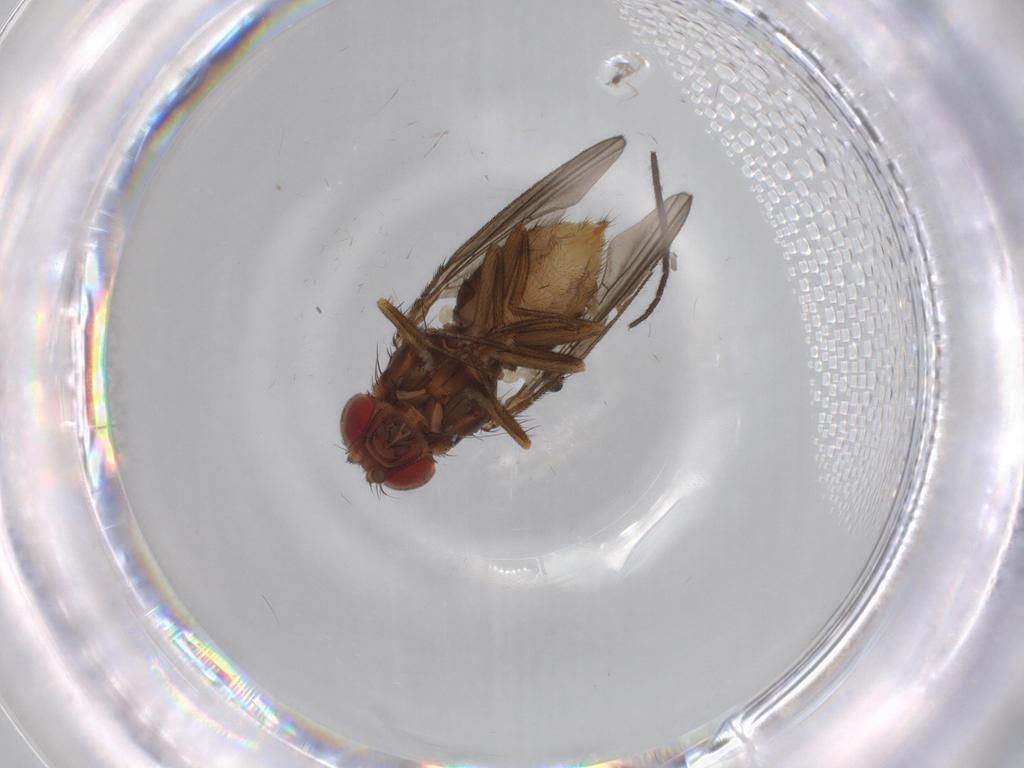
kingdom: Animalia
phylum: Arthropoda
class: Insecta
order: Diptera
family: Drosophilidae
